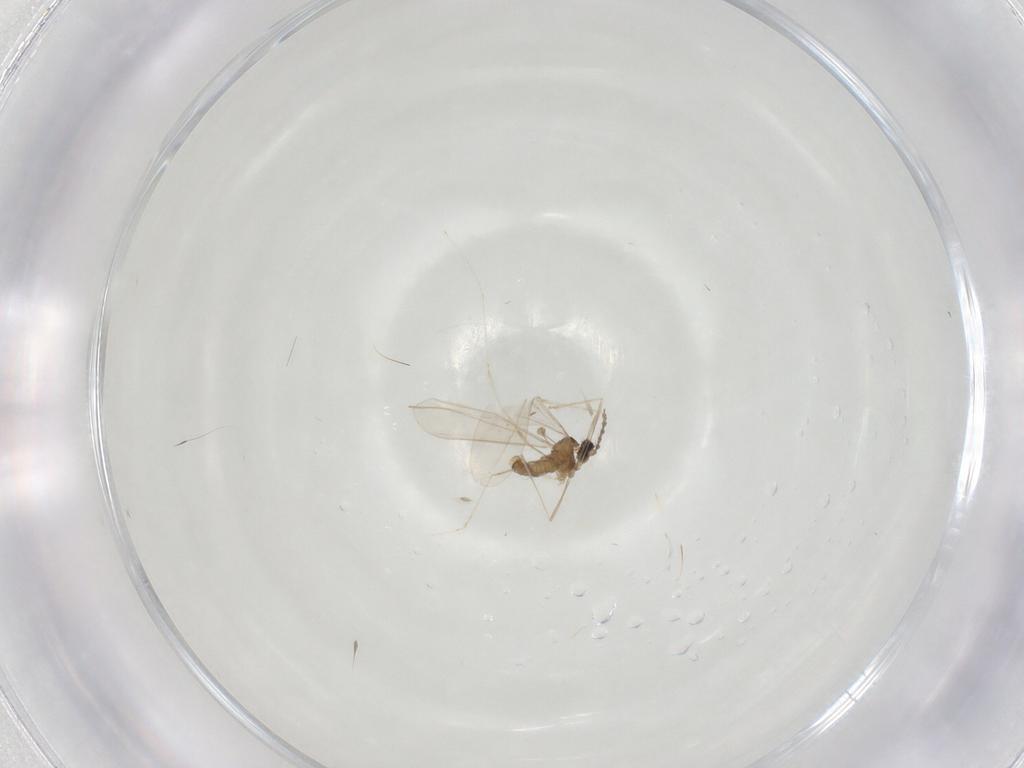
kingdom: Animalia
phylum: Arthropoda
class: Insecta
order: Diptera
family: Cecidomyiidae
